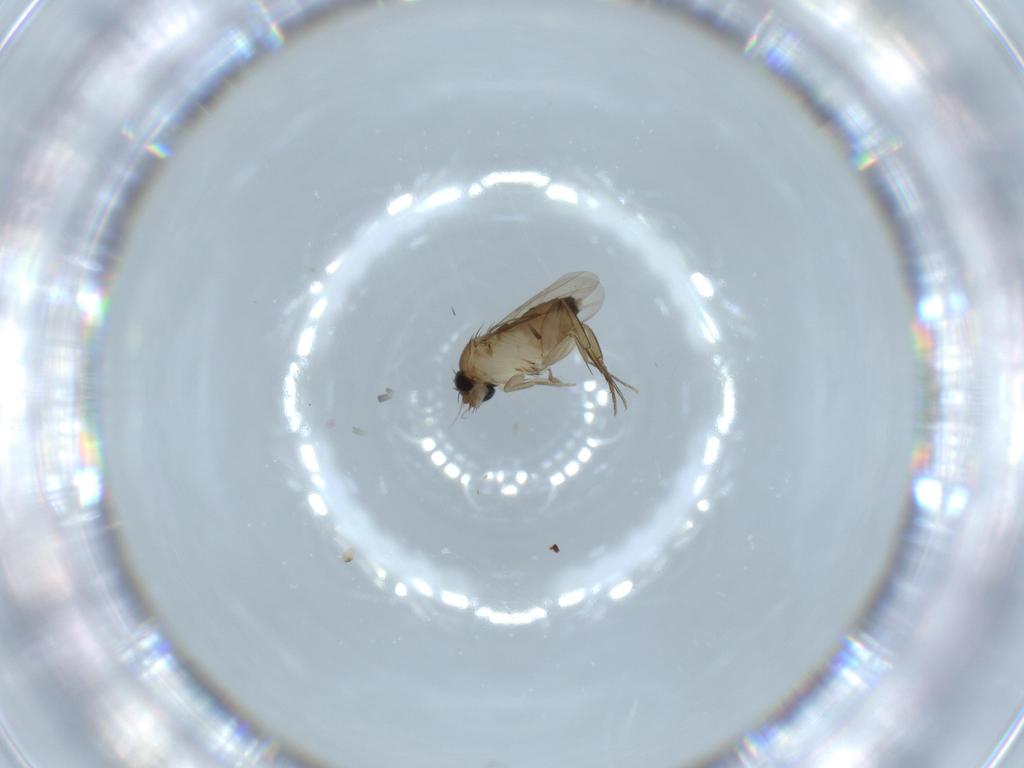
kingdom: Animalia
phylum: Arthropoda
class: Insecta
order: Diptera
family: Phoridae
